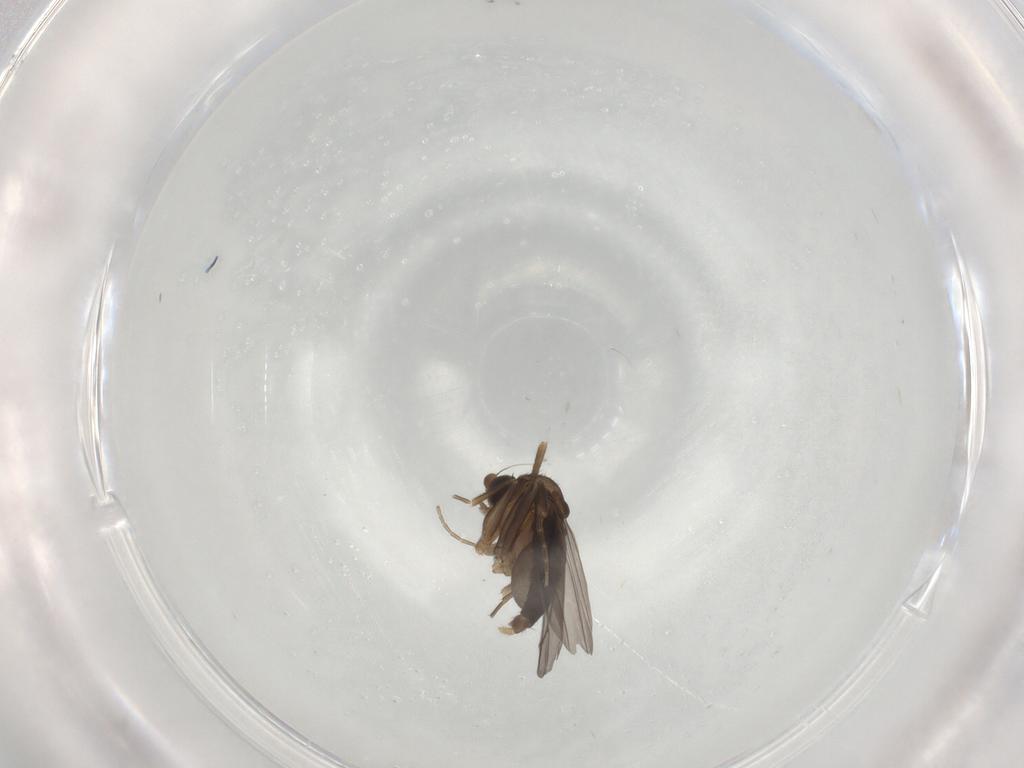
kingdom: Animalia
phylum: Arthropoda
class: Insecta
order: Diptera
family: Phoridae
